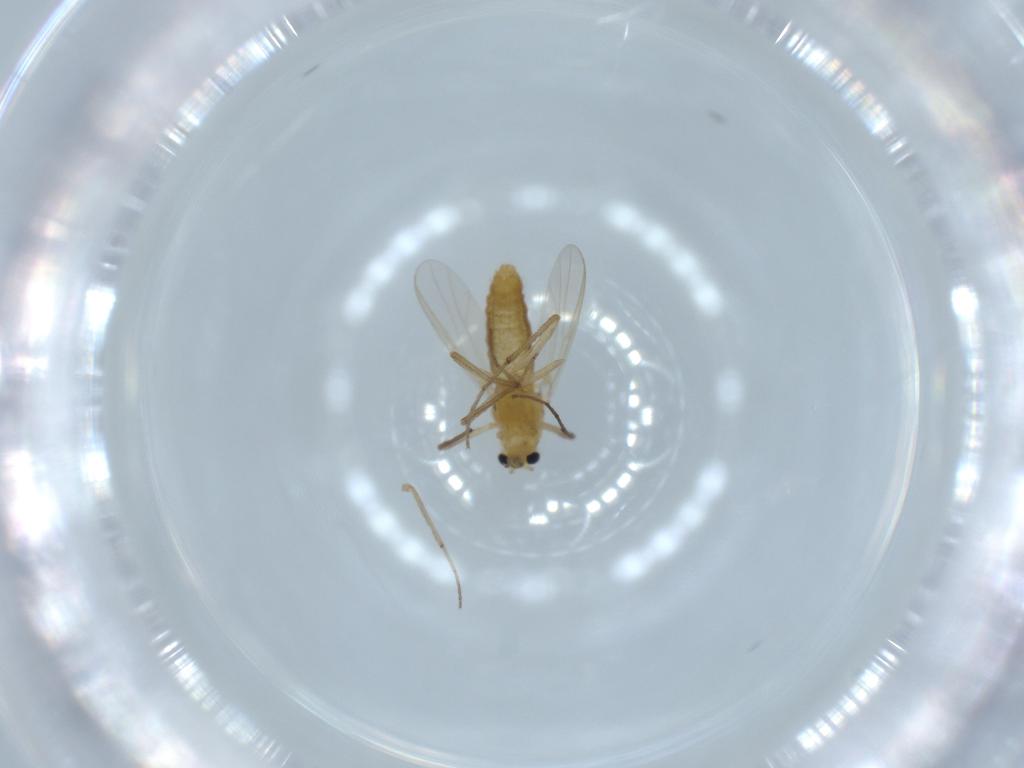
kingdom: Animalia
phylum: Arthropoda
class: Insecta
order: Diptera
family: Chironomidae
